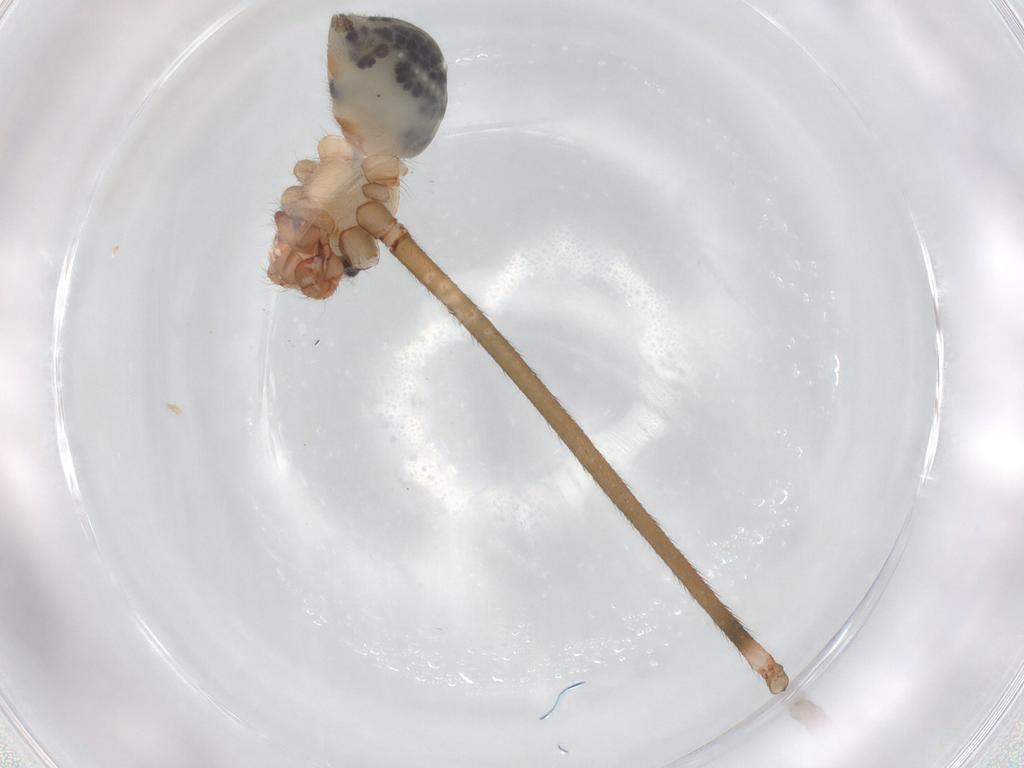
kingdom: Animalia
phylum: Arthropoda
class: Arachnida
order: Araneae
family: Pholcidae
